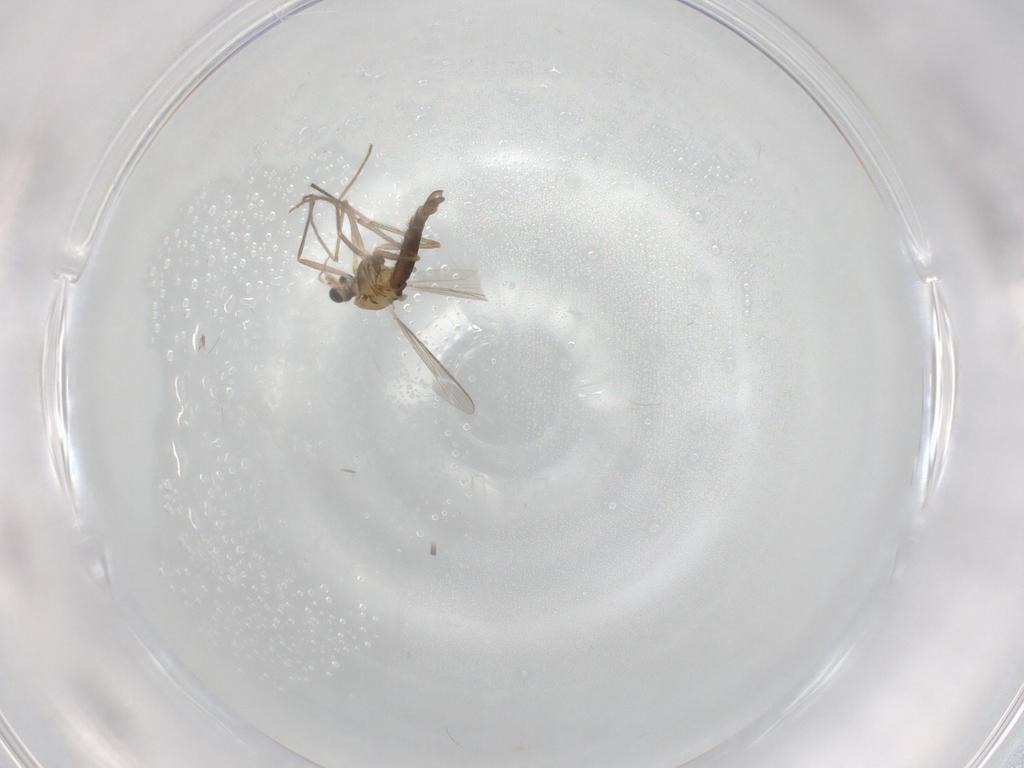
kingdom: Animalia
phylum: Arthropoda
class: Insecta
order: Diptera
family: Chironomidae
